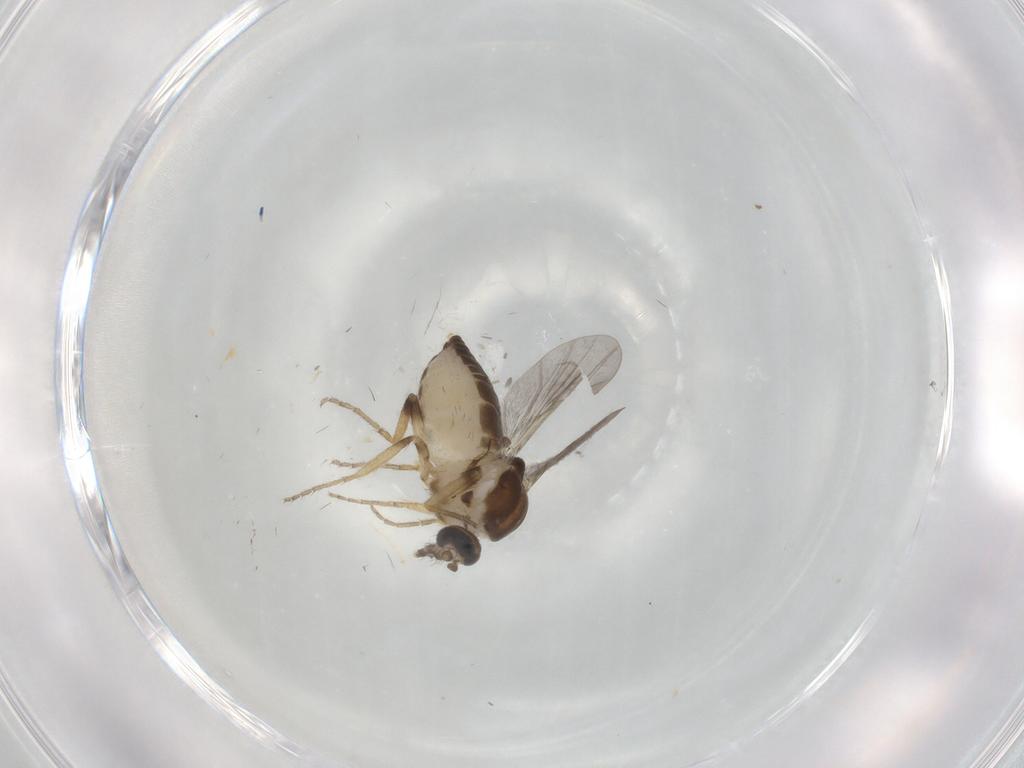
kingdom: Animalia
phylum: Arthropoda
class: Insecta
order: Diptera
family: Ceratopogonidae
